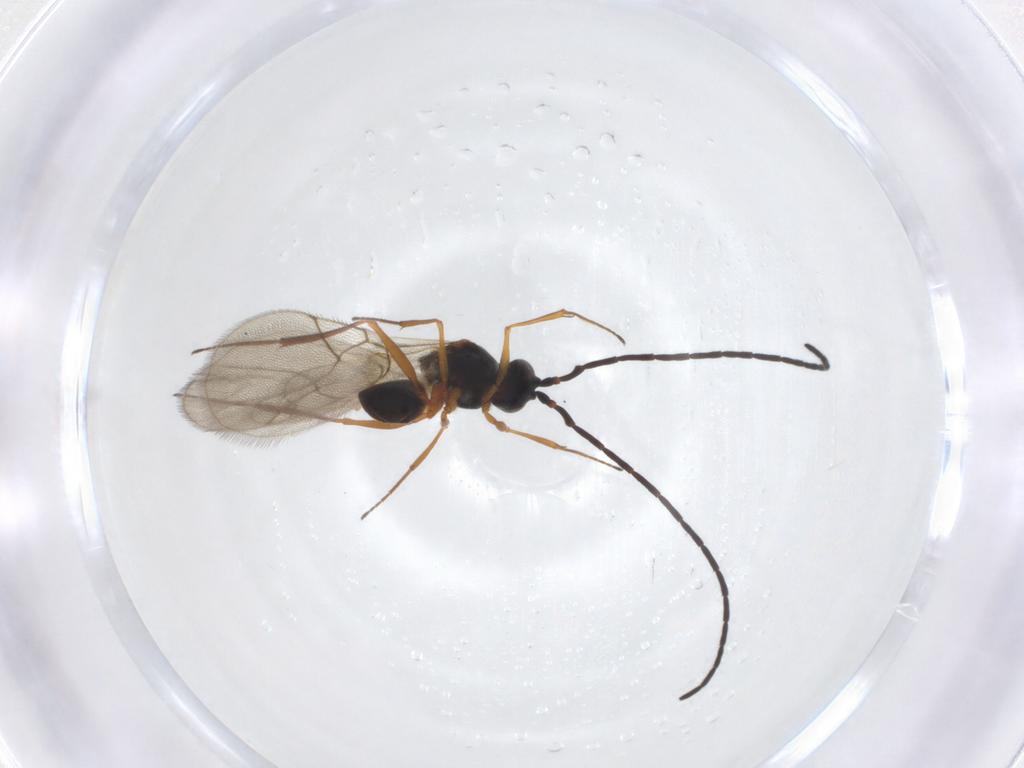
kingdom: Animalia
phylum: Arthropoda
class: Insecta
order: Hymenoptera
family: Figitidae
